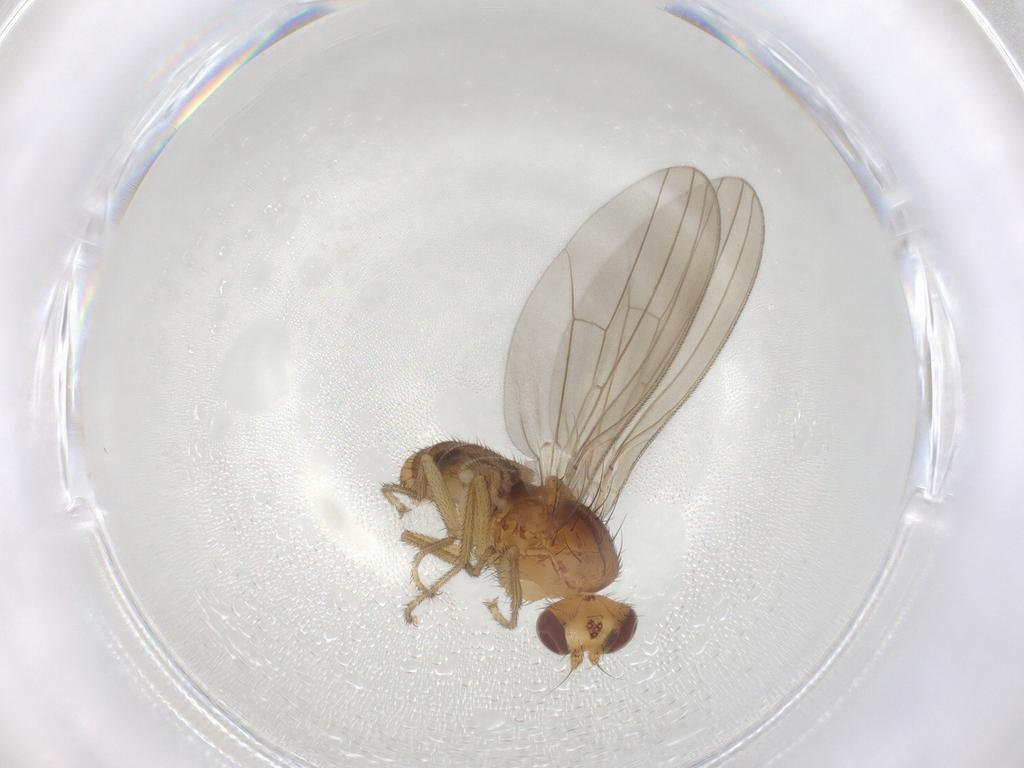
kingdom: Animalia
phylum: Arthropoda
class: Insecta
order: Diptera
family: Natalimyzidae
